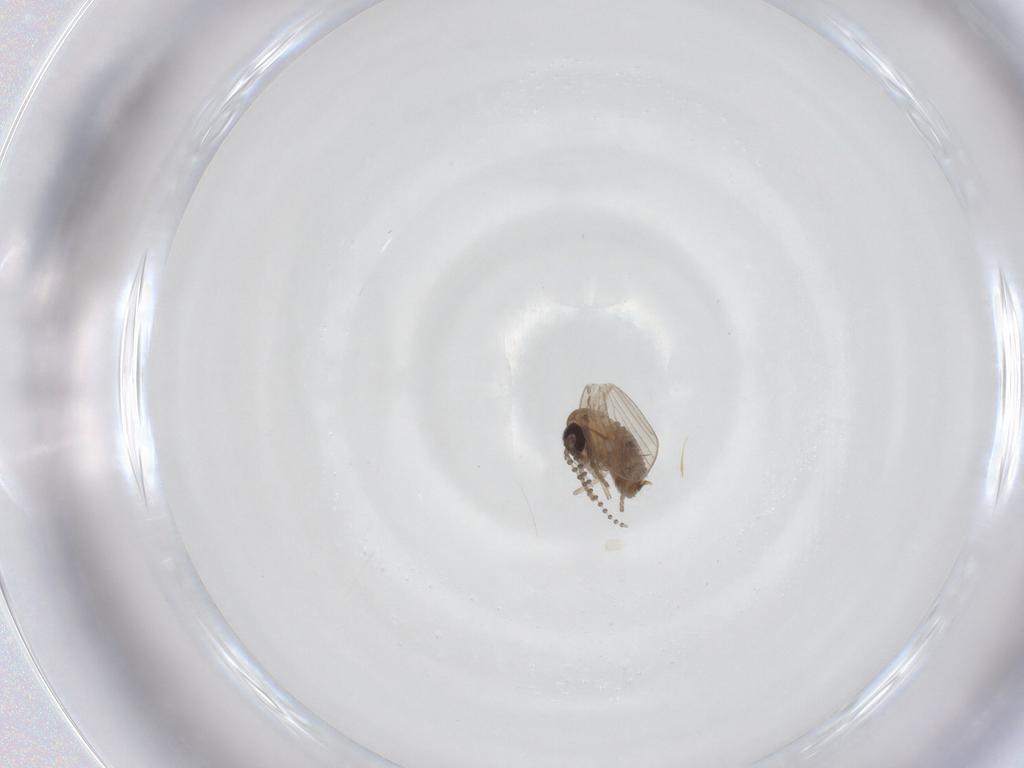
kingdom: Animalia
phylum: Arthropoda
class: Insecta
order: Diptera
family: Psychodidae
